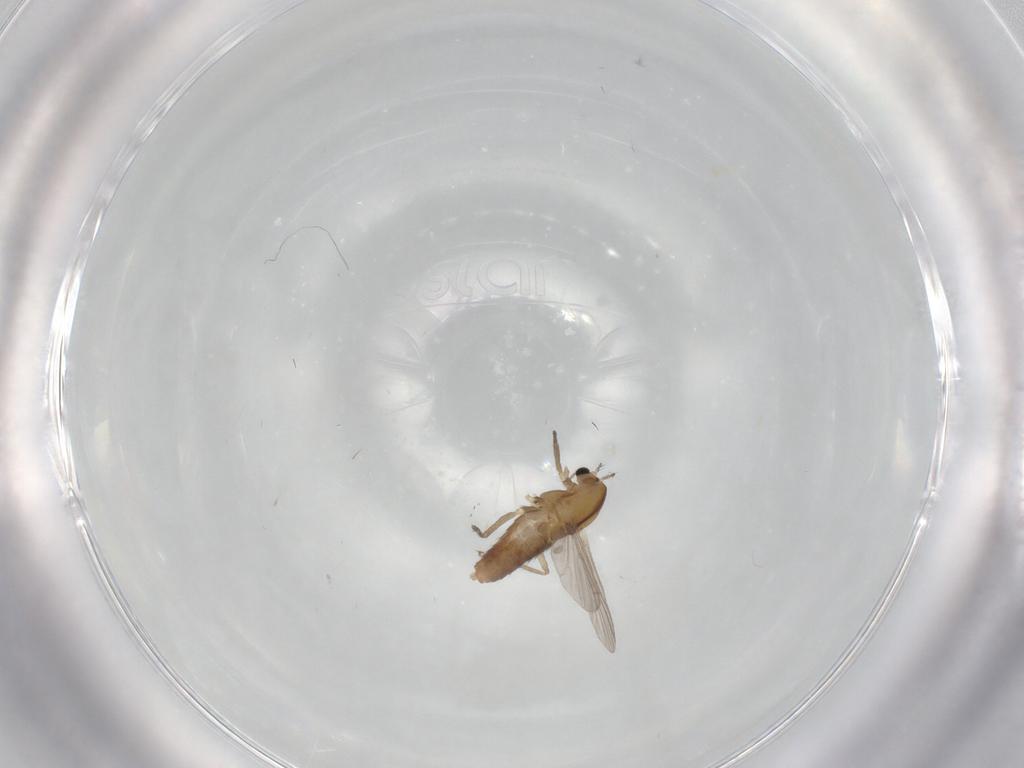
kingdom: Animalia
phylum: Arthropoda
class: Insecta
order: Diptera
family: Chironomidae
